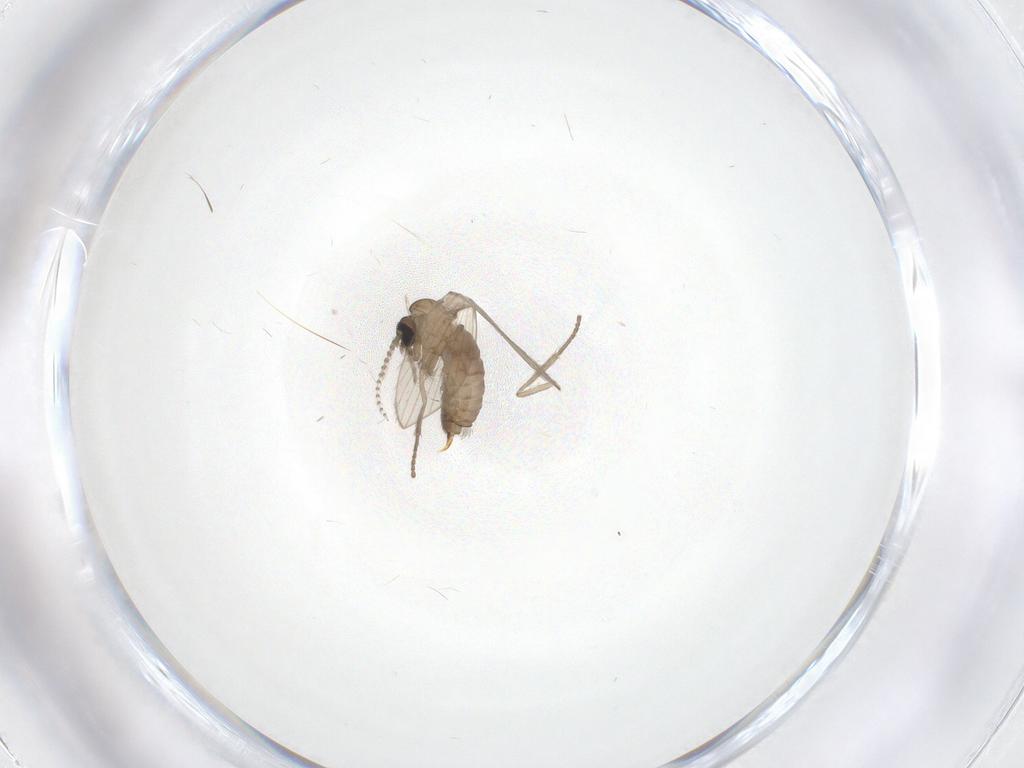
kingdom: Animalia
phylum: Arthropoda
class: Insecta
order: Diptera
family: Psychodidae
